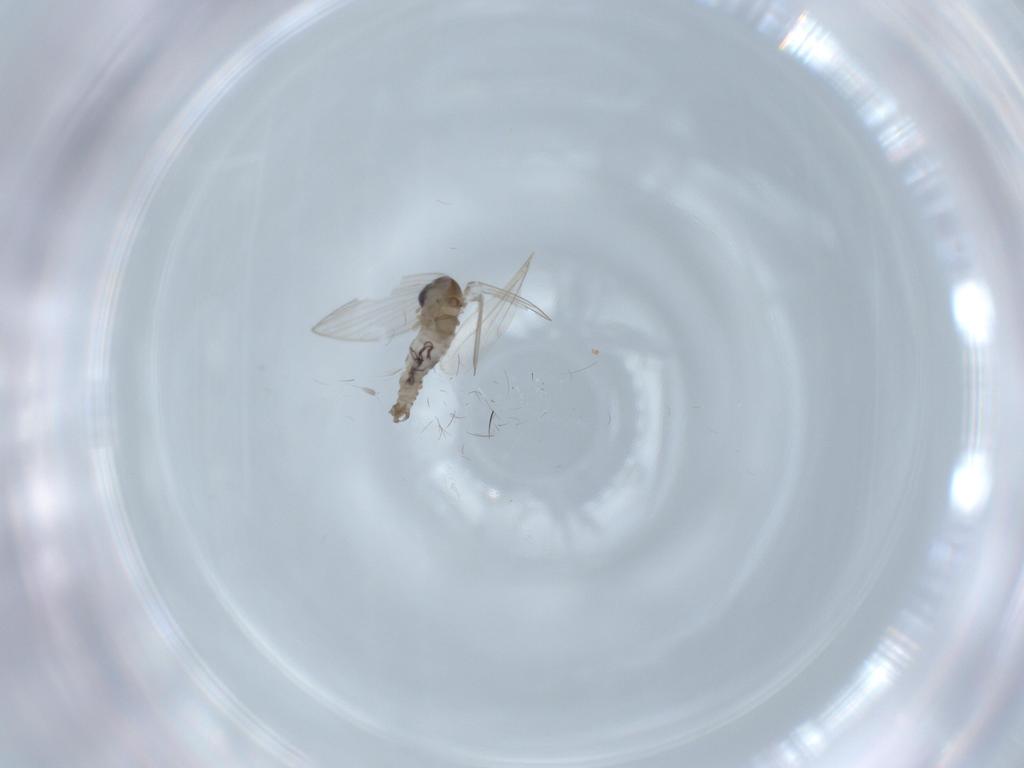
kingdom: Animalia
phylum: Arthropoda
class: Insecta
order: Diptera
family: Psychodidae
